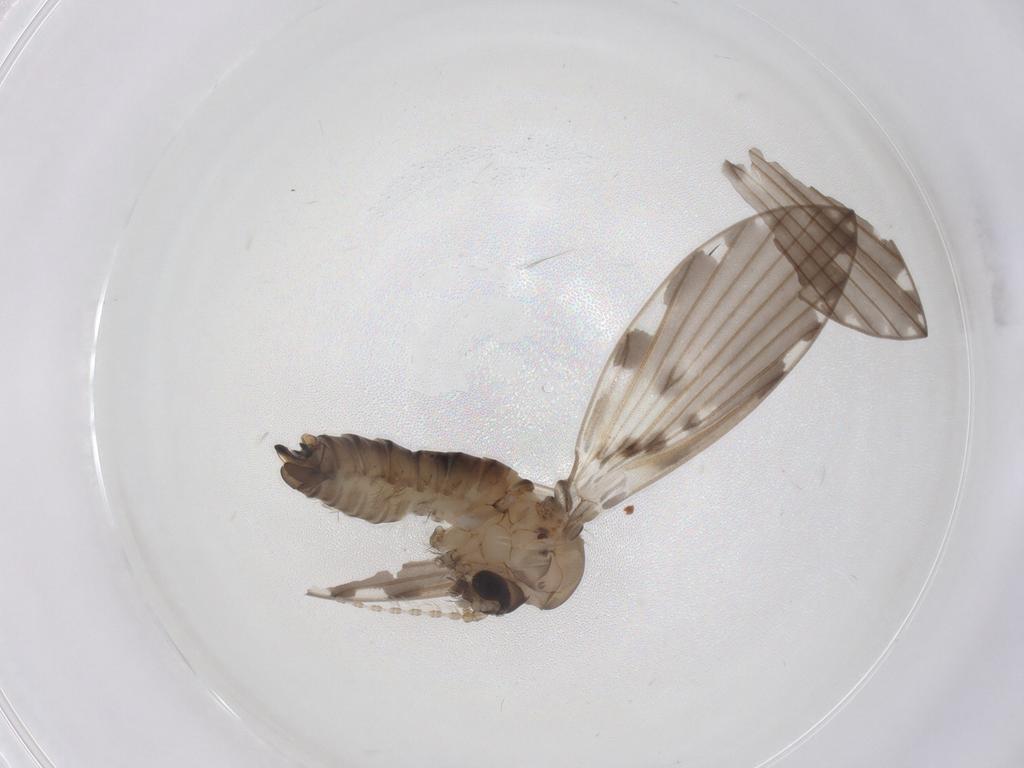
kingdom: Animalia
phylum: Arthropoda
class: Insecta
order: Diptera
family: Psychodidae
